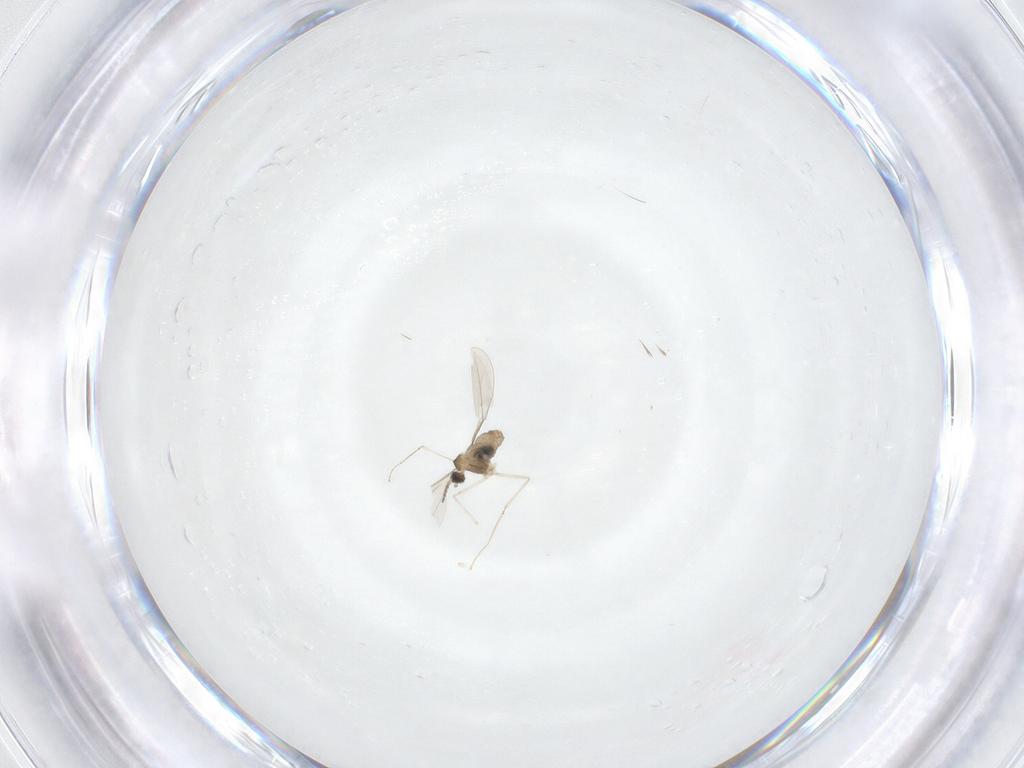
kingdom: Animalia
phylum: Arthropoda
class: Insecta
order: Diptera
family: Cecidomyiidae
